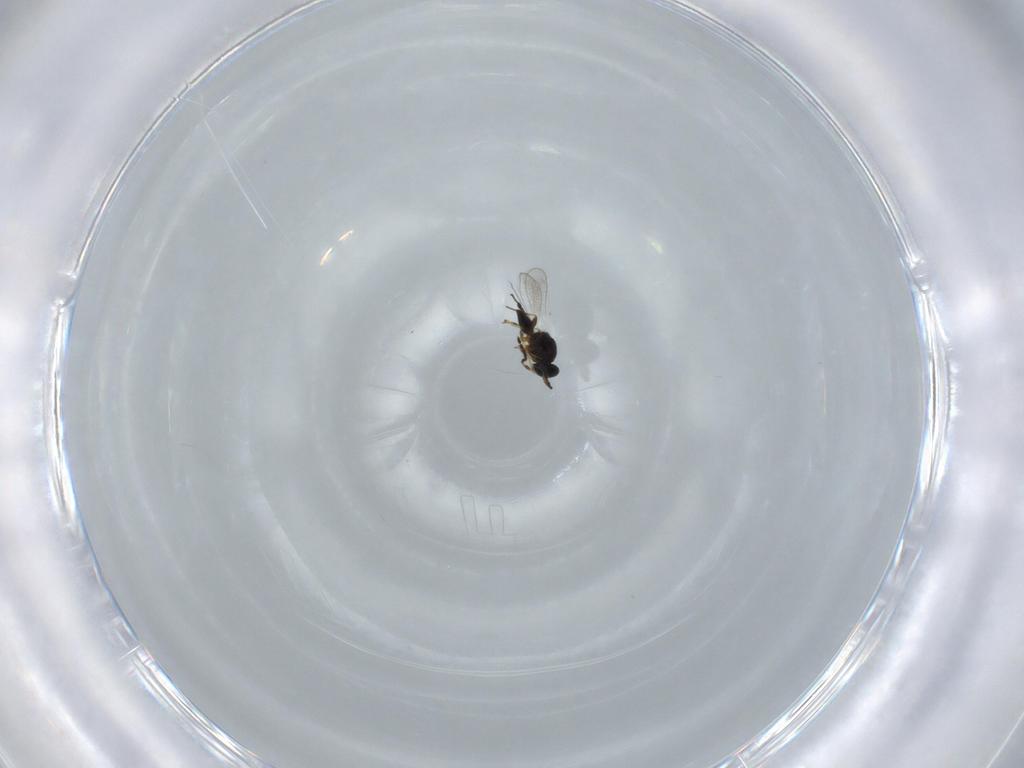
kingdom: Animalia
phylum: Arthropoda
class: Insecta
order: Hymenoptera
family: Platygastridae
